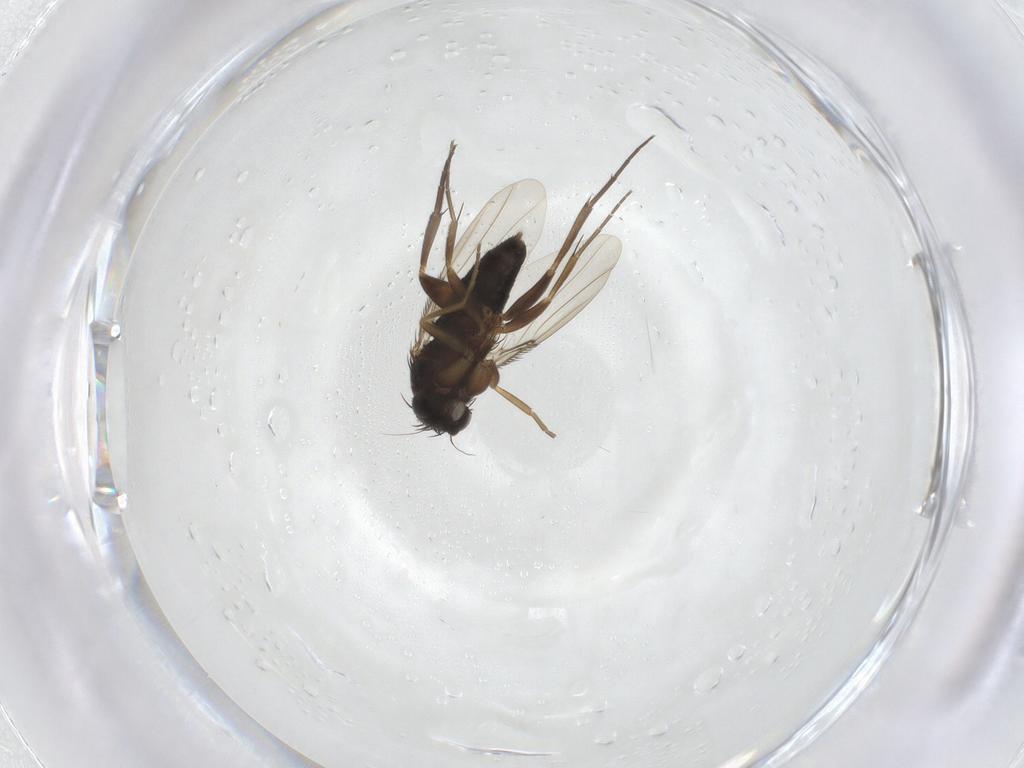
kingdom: Animalia
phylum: Arthropoda
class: Insecta
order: Diptera
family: Phoridae
